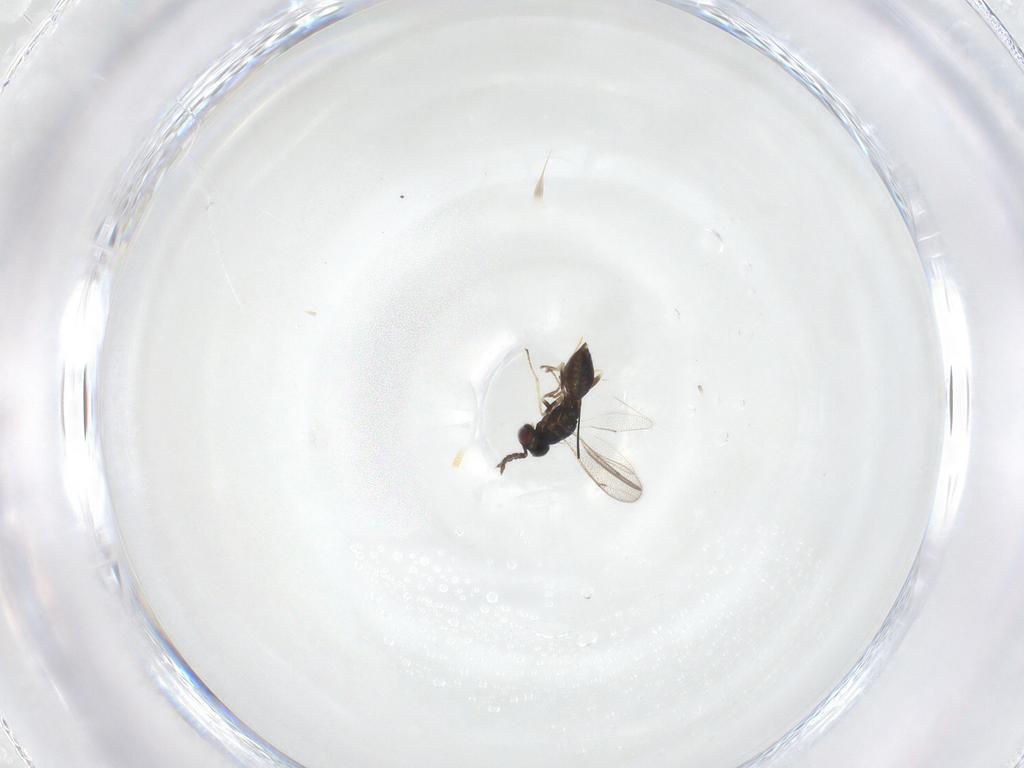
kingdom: Animalia
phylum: Arthropoda
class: Insecta
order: Hymenoptera
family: Eulophidae
